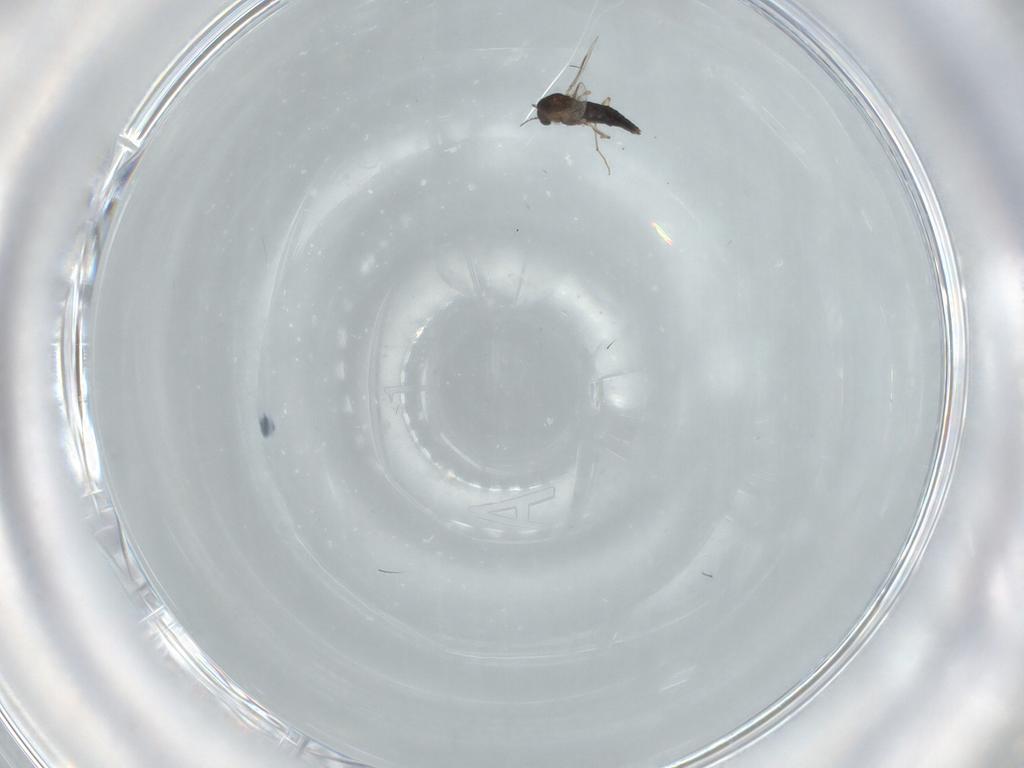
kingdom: Animalia
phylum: Arthropoda
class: Insecta
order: Diptera
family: Chironomidae
